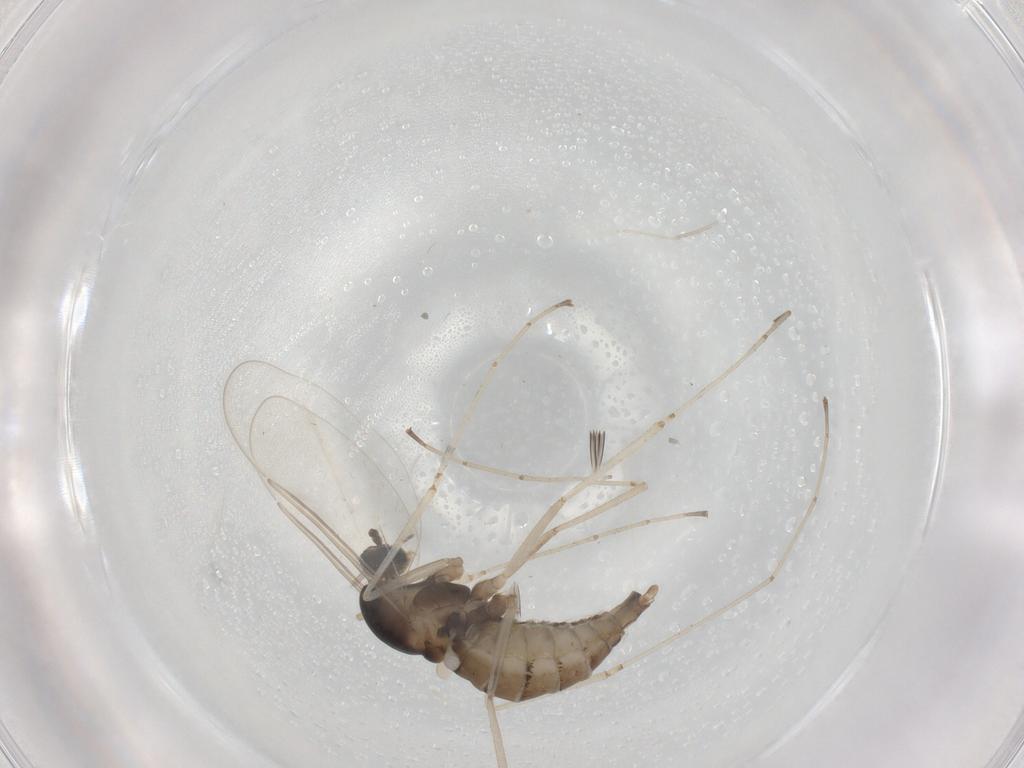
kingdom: Animalia
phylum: Arthropoda
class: Insecta
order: Diptera
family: Cecidomyiidae
